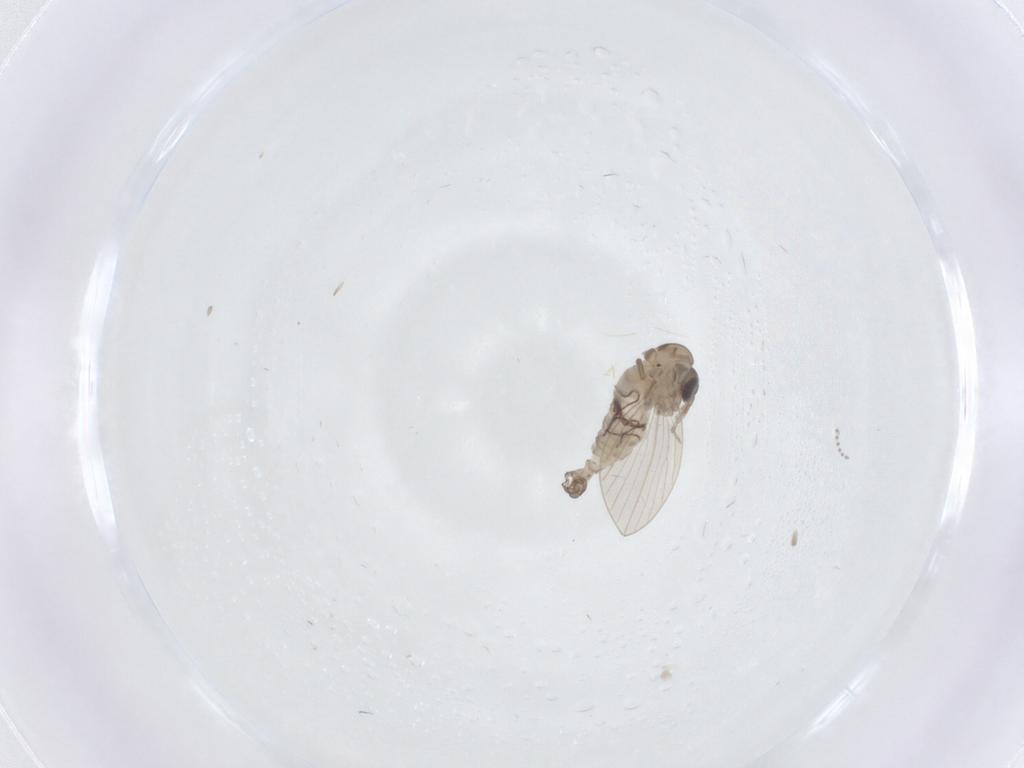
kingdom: Animalia
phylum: Arthropoda
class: Insecta
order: Diptera
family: Psychodidae
